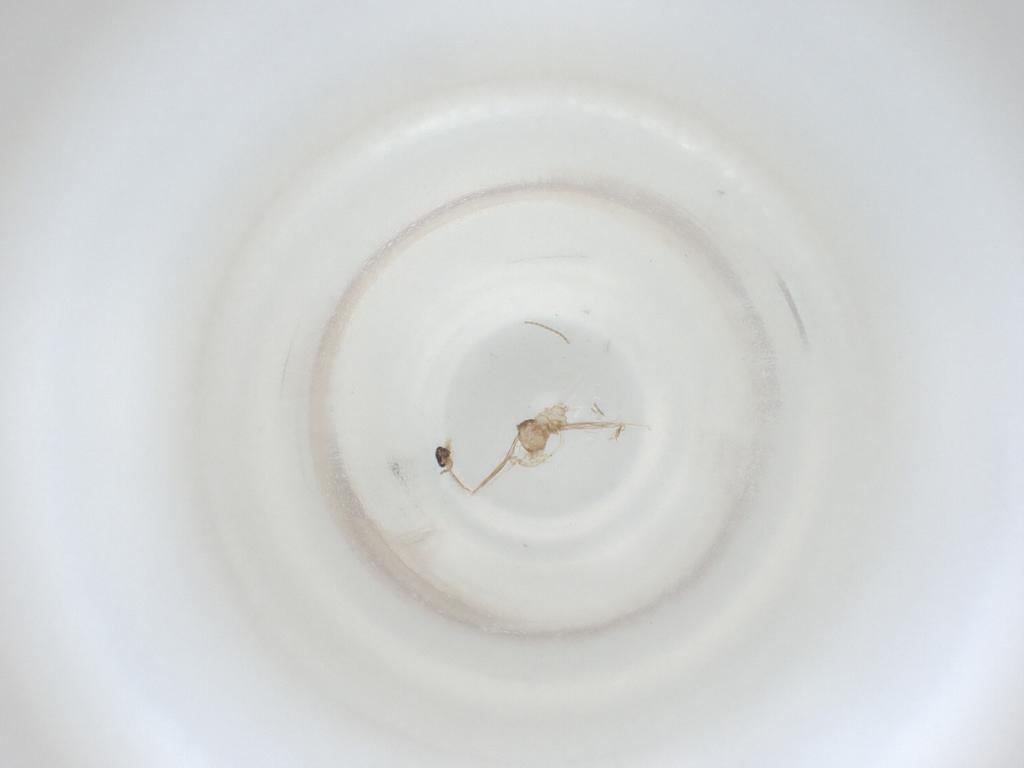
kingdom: Animalia
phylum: Arthropoda
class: Insecta
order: Diptera
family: Cecidomyiidae
